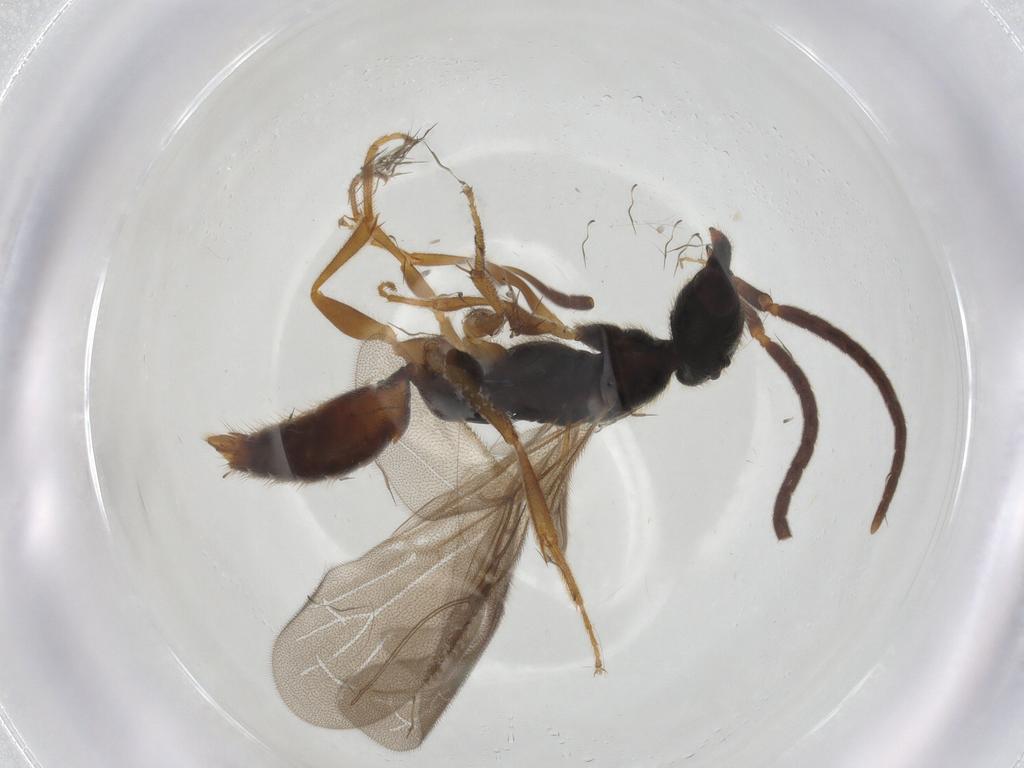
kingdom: Animalia
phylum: Arthropoda
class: Insecta
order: Hymenoptera
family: Bethylidae
